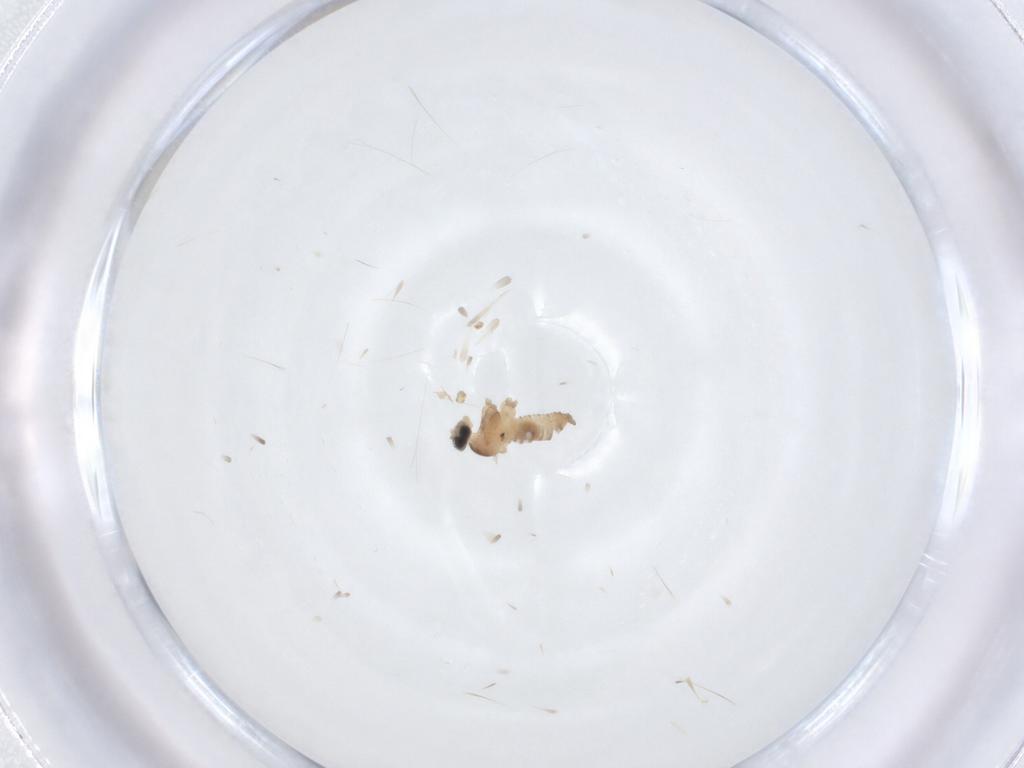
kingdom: Animalia
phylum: Arthropoda
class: Insecta
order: Diptera
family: Cecidomyiidae
